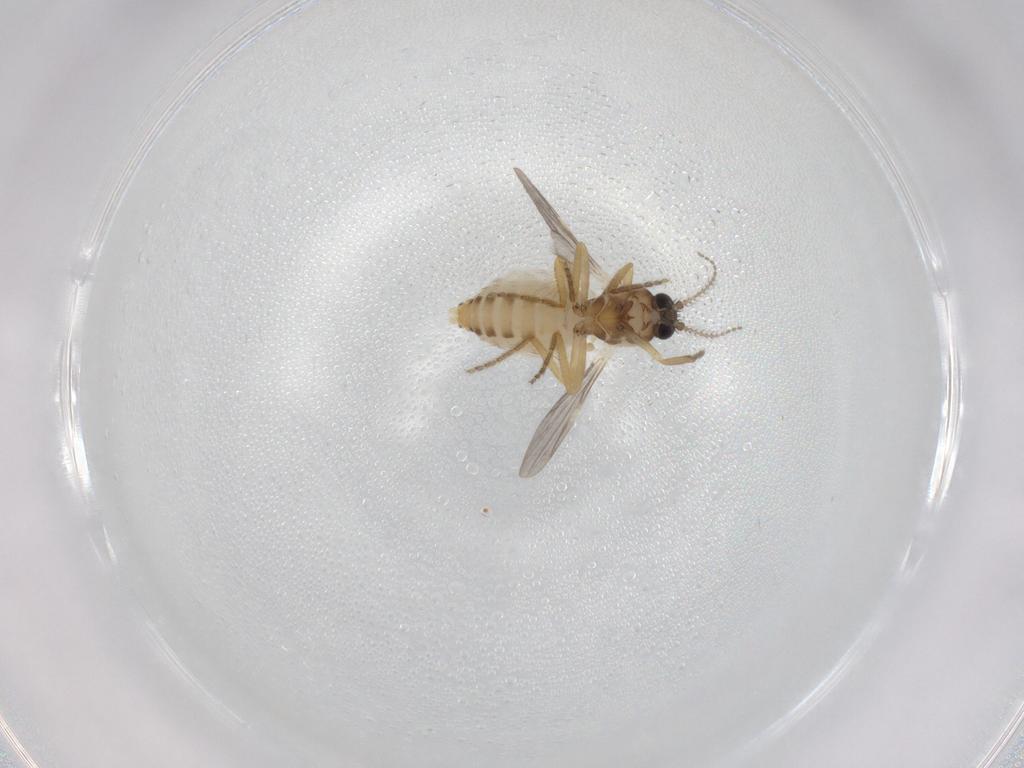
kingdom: Animalia
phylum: Arthropoda
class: Insecta
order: Diptera
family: Ceratopogonidae
